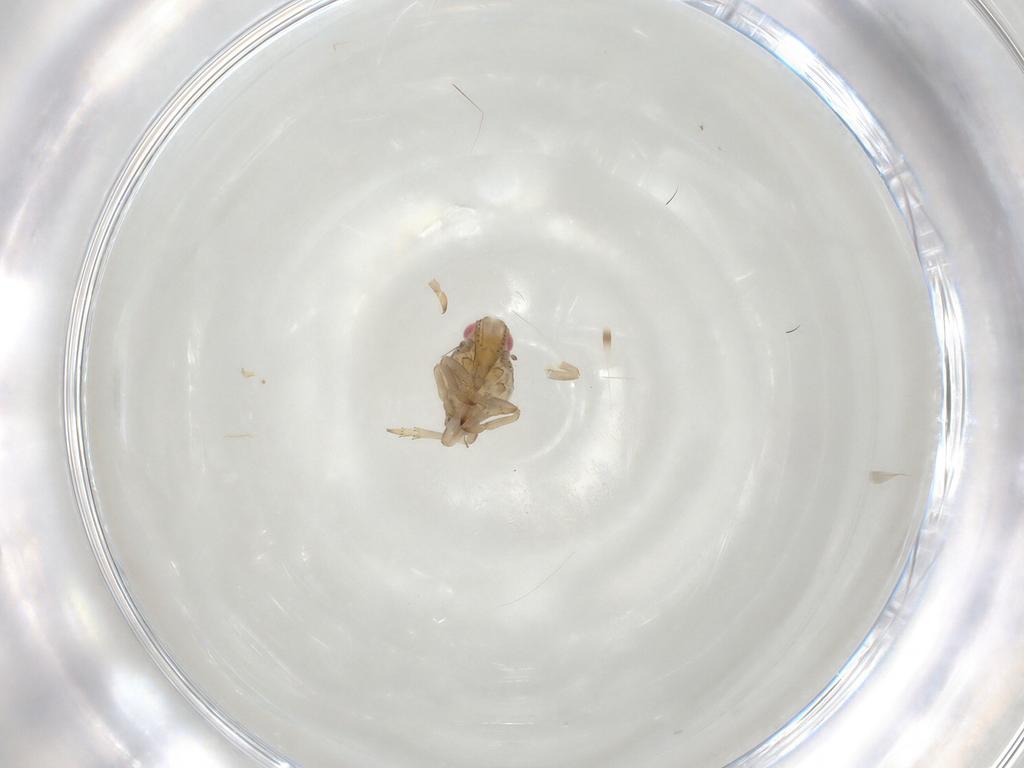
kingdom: Animalia
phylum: Arthropoda
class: Insecta
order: Hemiptera
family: Tropiduchidae
